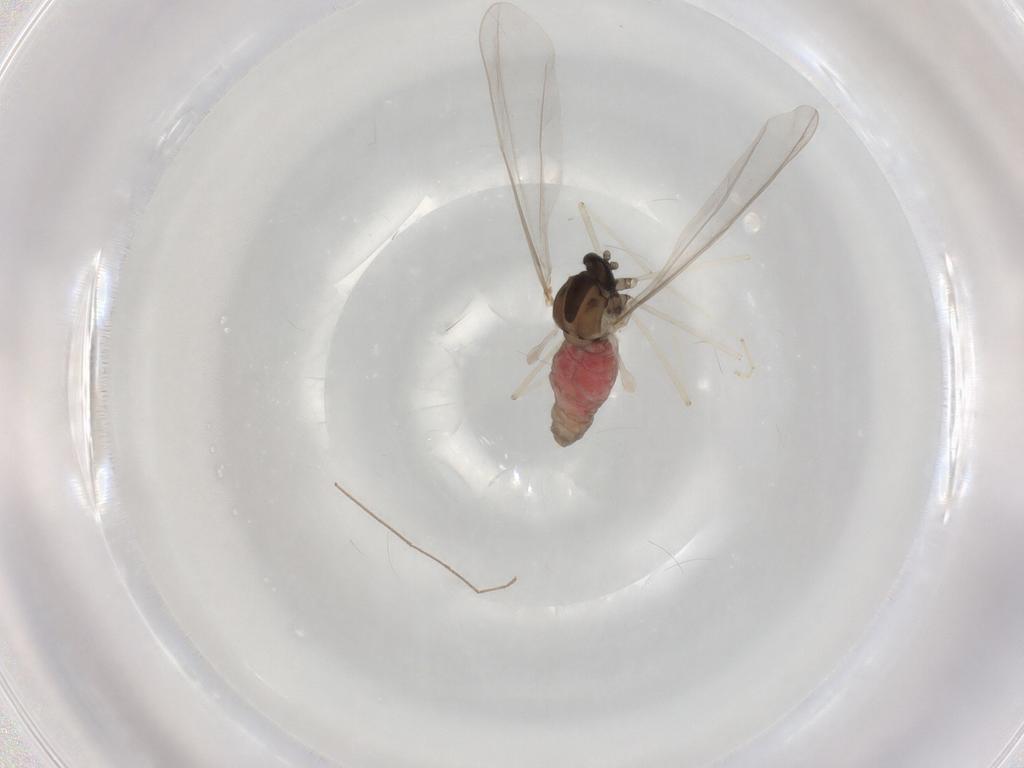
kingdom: Animalia
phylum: Arthropoda
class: Insecta
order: Diptera
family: Cecidomyiidae
